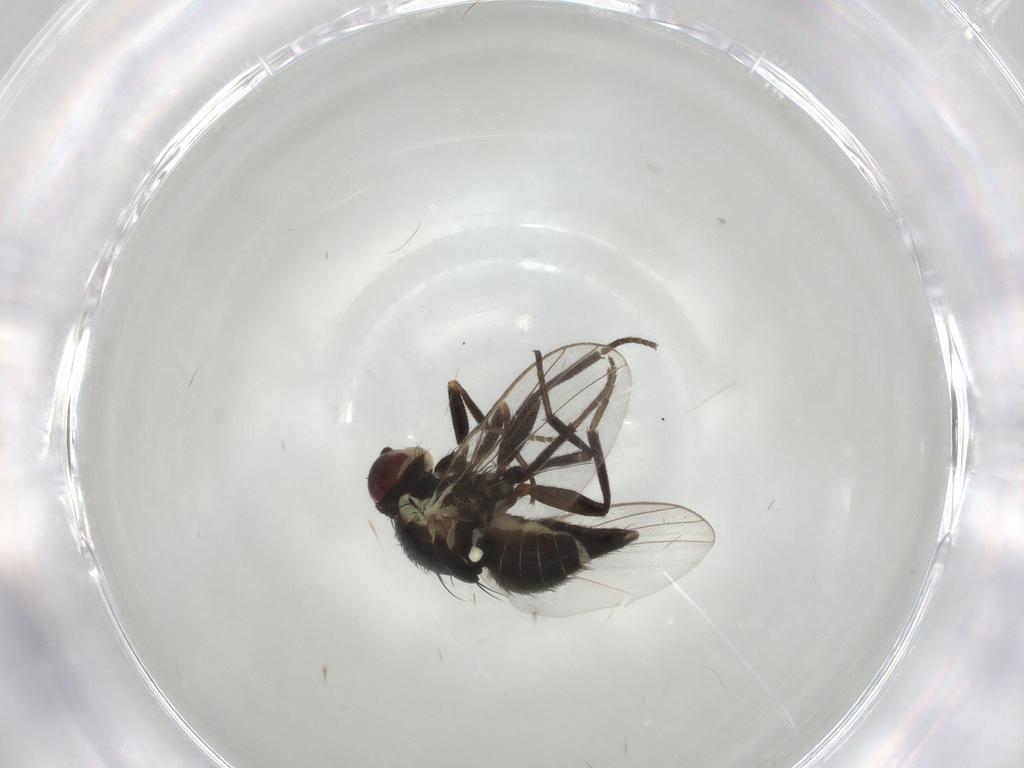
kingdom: Animalia
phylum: Arthropoda
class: Insecta
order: Diptera
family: Agromyzidae
